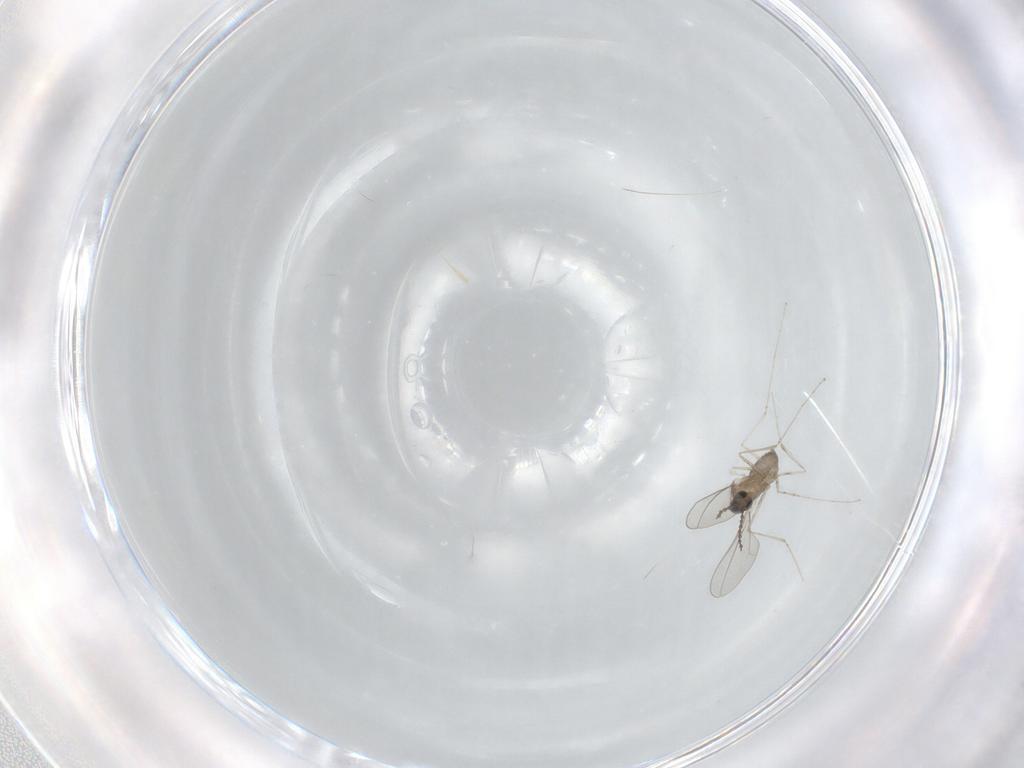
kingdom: Animalia
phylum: Arthropoda
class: Insecta
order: Diptera
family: Cecidomyiidae
